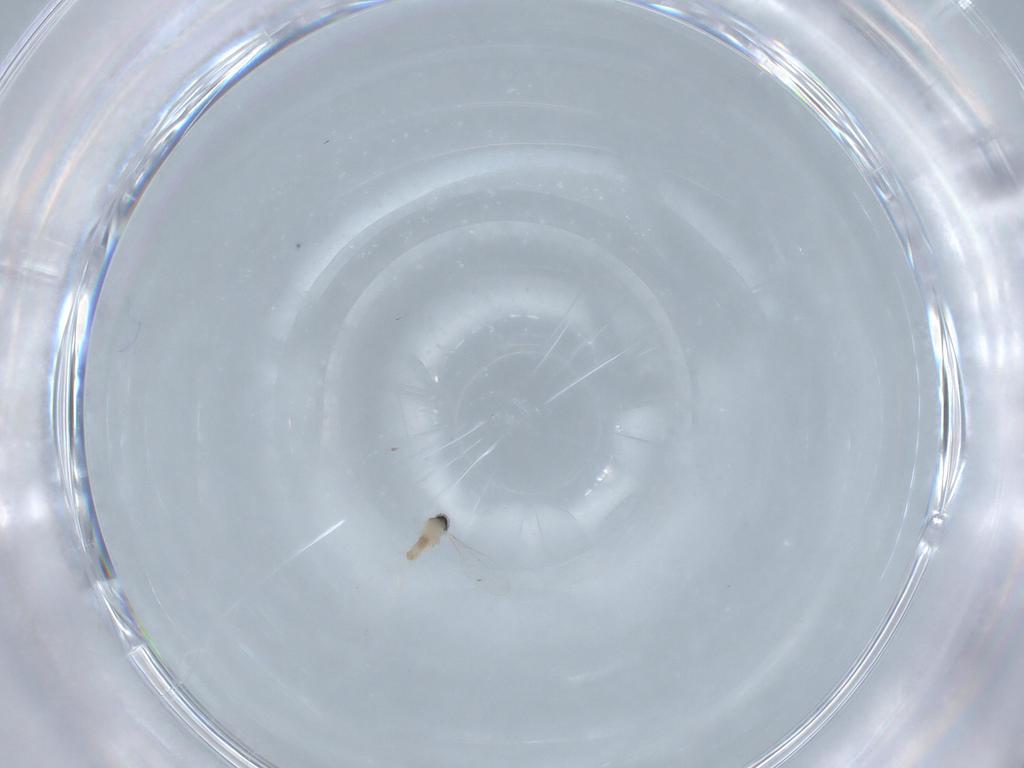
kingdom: Animalia
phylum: Arthropoda
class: Insecta
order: Diptera
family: Cecidomyiidae
